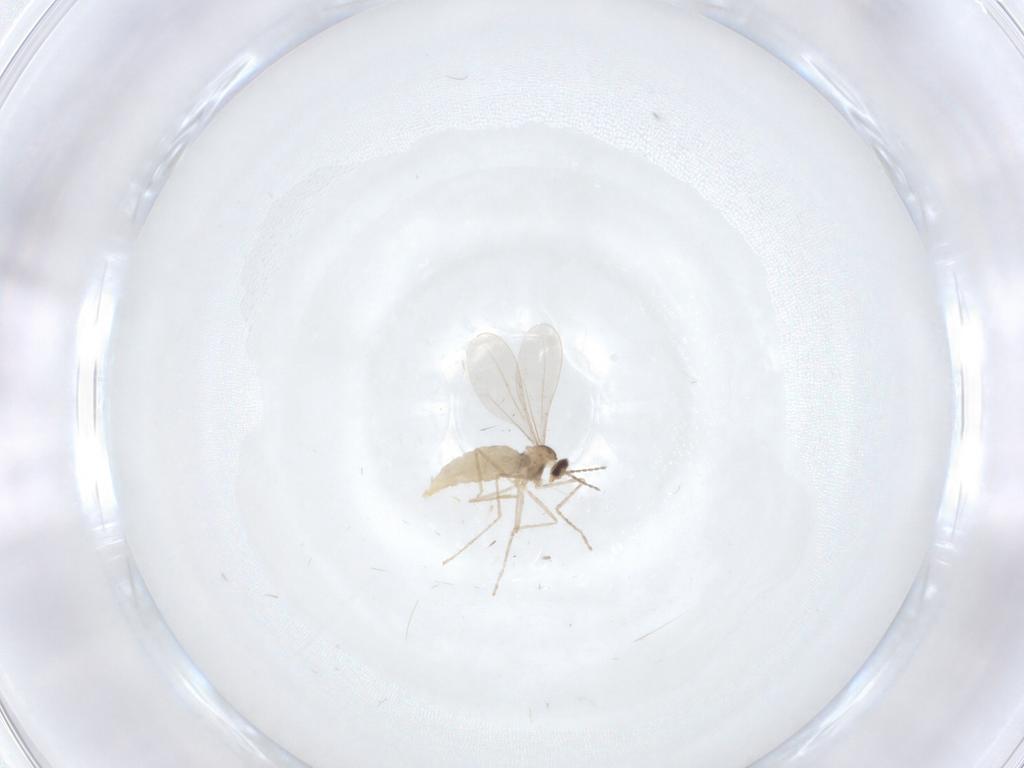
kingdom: Animalia
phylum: Arthropoda
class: Insecta
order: Diptera
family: Cecidomyiidae
